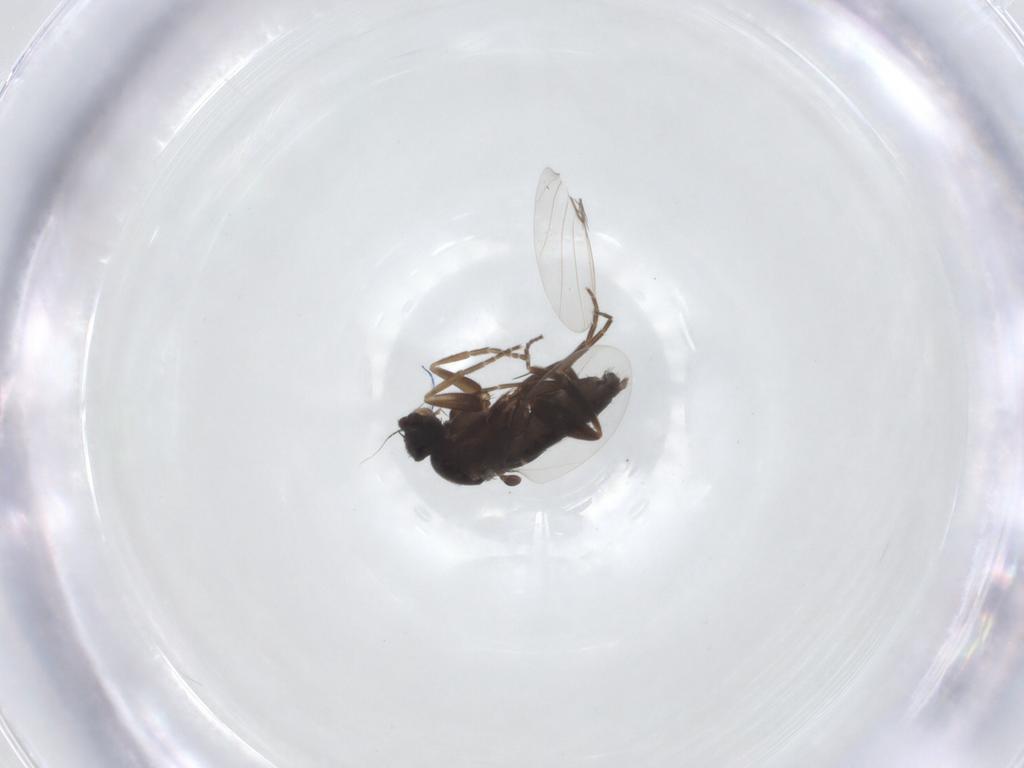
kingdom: Animalia
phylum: Arthropoda
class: Insecta
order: Diptera
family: Phoridae
